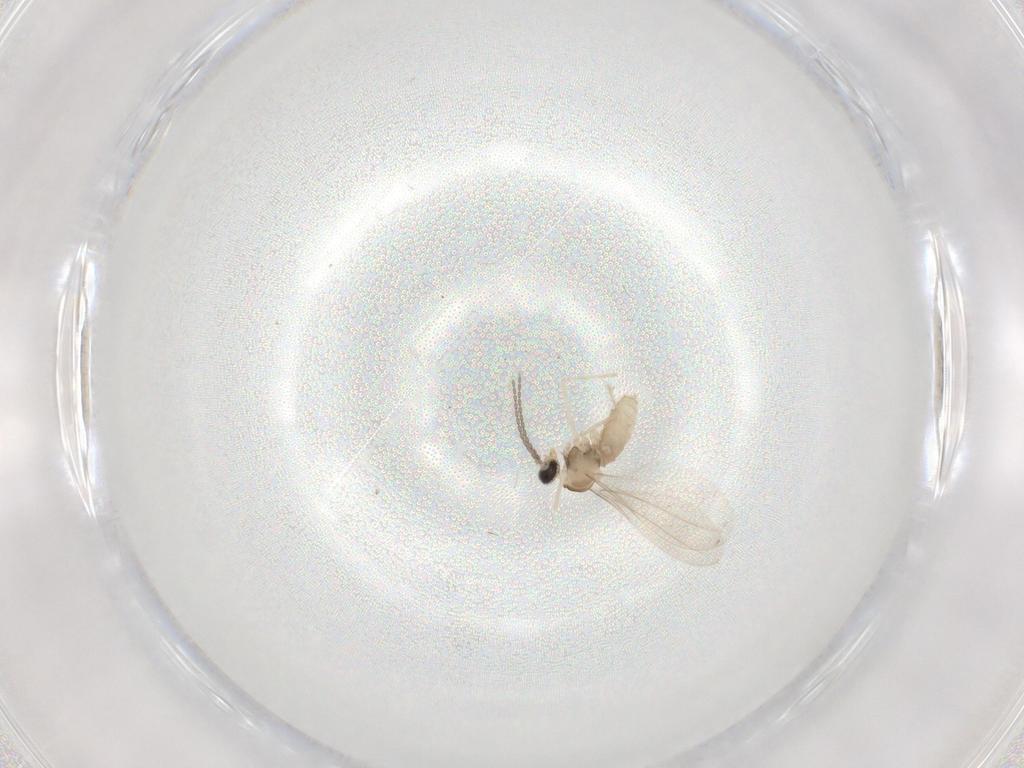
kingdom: Animalia
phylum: Arthropoda
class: Insecta
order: Diptera
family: Cecidomyiidae
